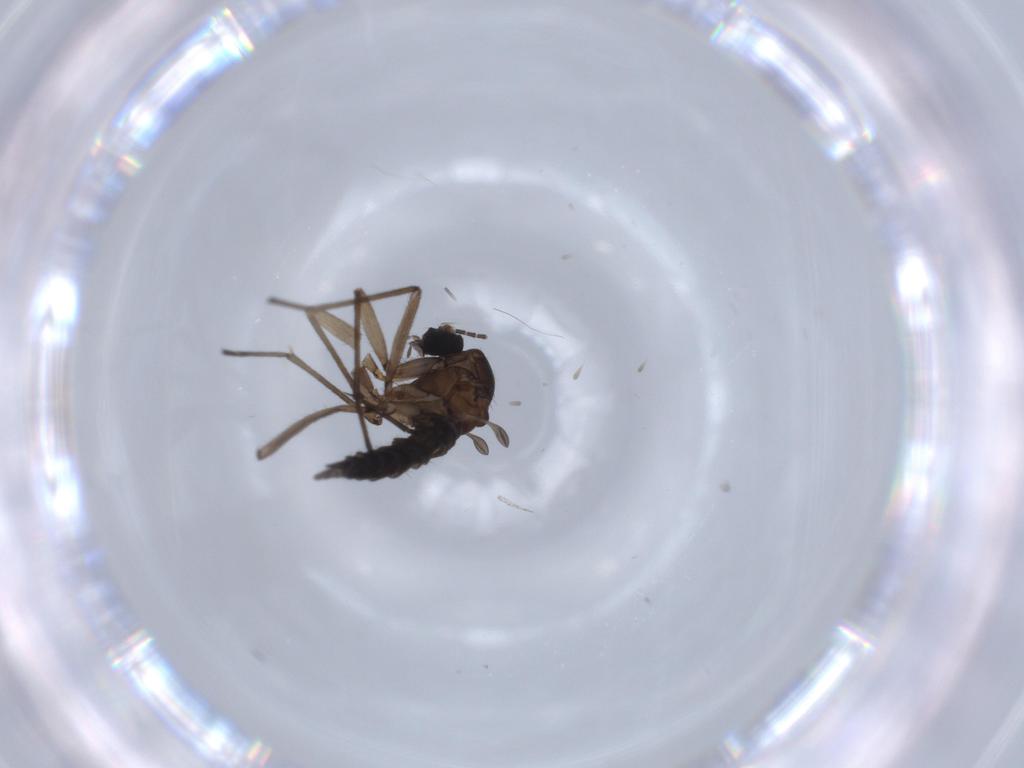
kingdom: Animalia
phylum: Arthropoda
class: Insecta
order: Diptera
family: Sciaridae
